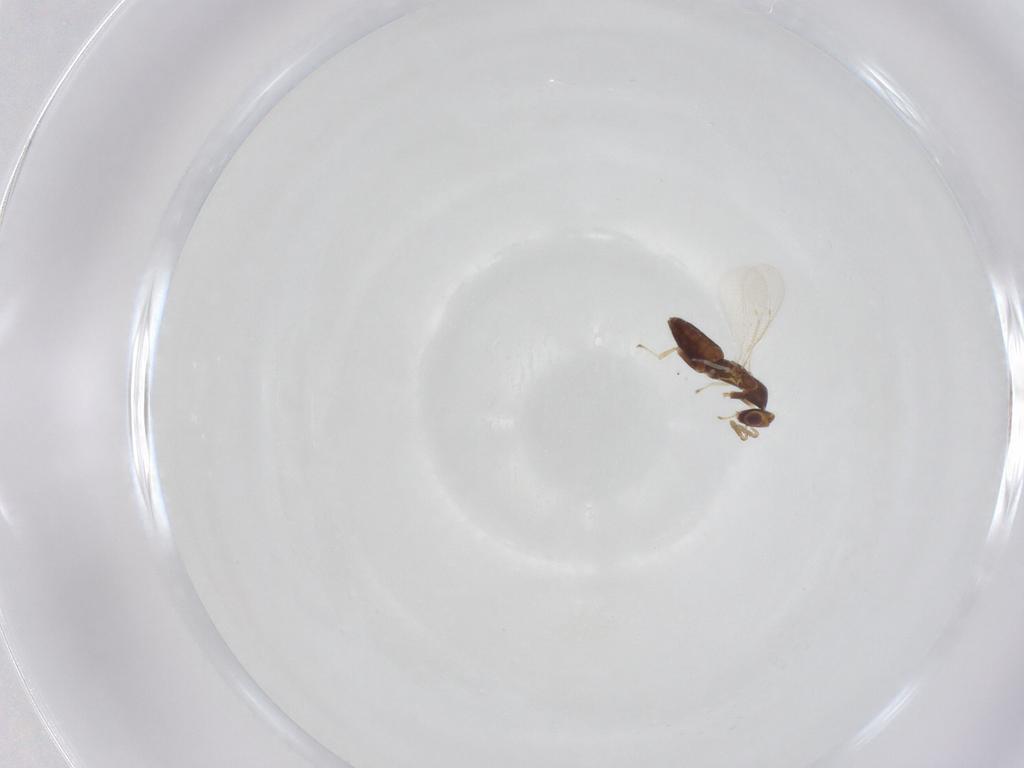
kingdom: Animalia
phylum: Arthropoda
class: Insecta
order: Hymenoptera
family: Eulophidae
